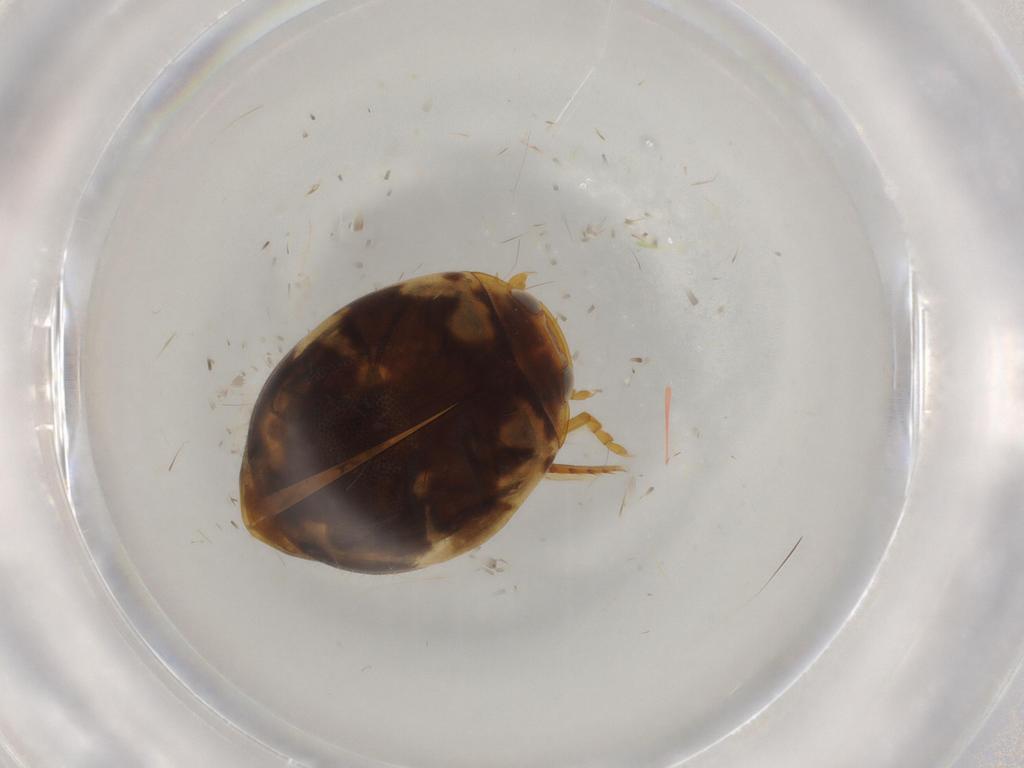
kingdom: Animalia
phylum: Arthropoda
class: Insecta
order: Coleoptera
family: Dytiscidae
